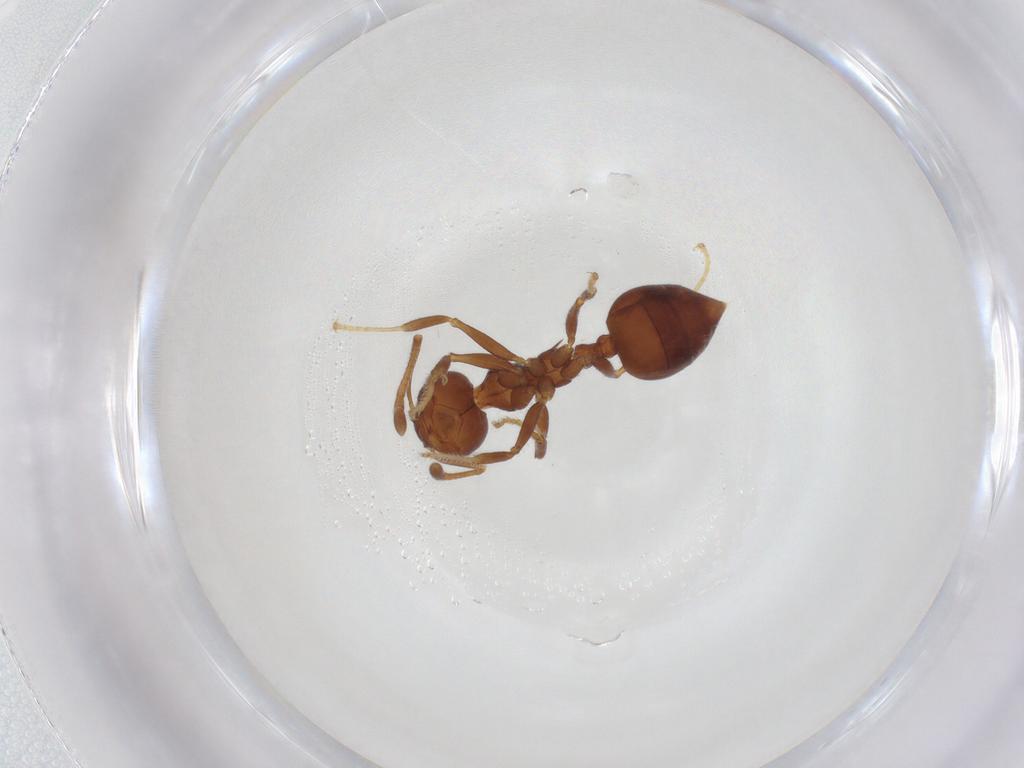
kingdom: Animalia
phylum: Arthropoda
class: Insecta
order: Hymenoptera
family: Formicidae
